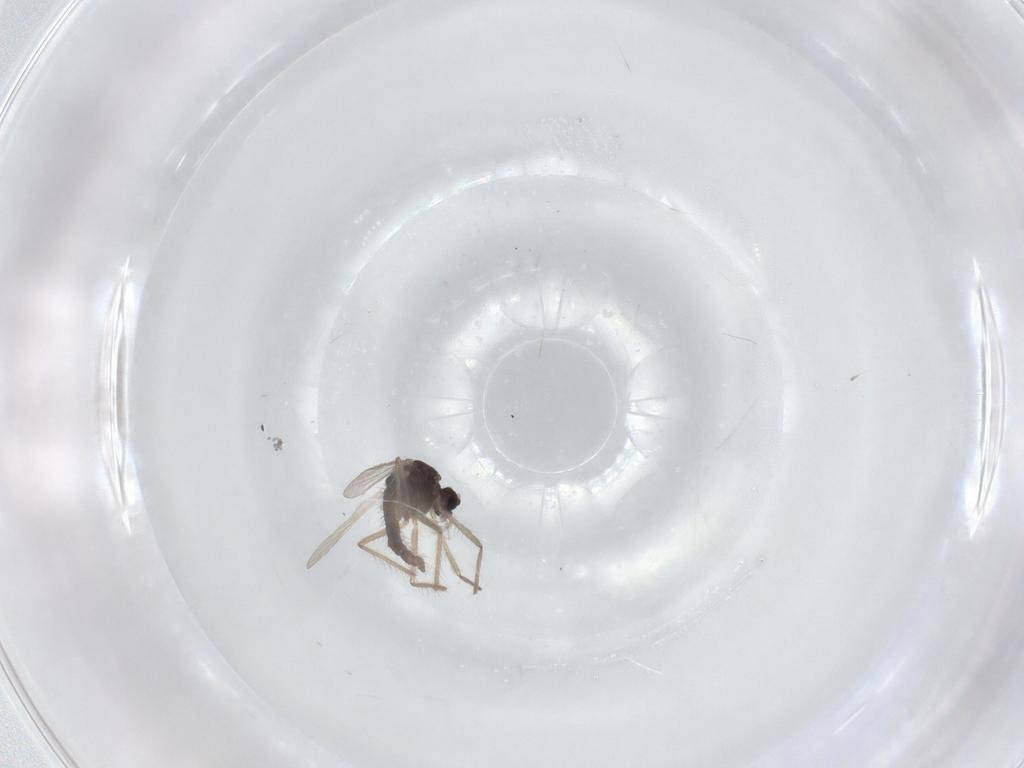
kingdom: Animalia
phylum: Arthropoda
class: Insecta
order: Diptera
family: Chironomidae
